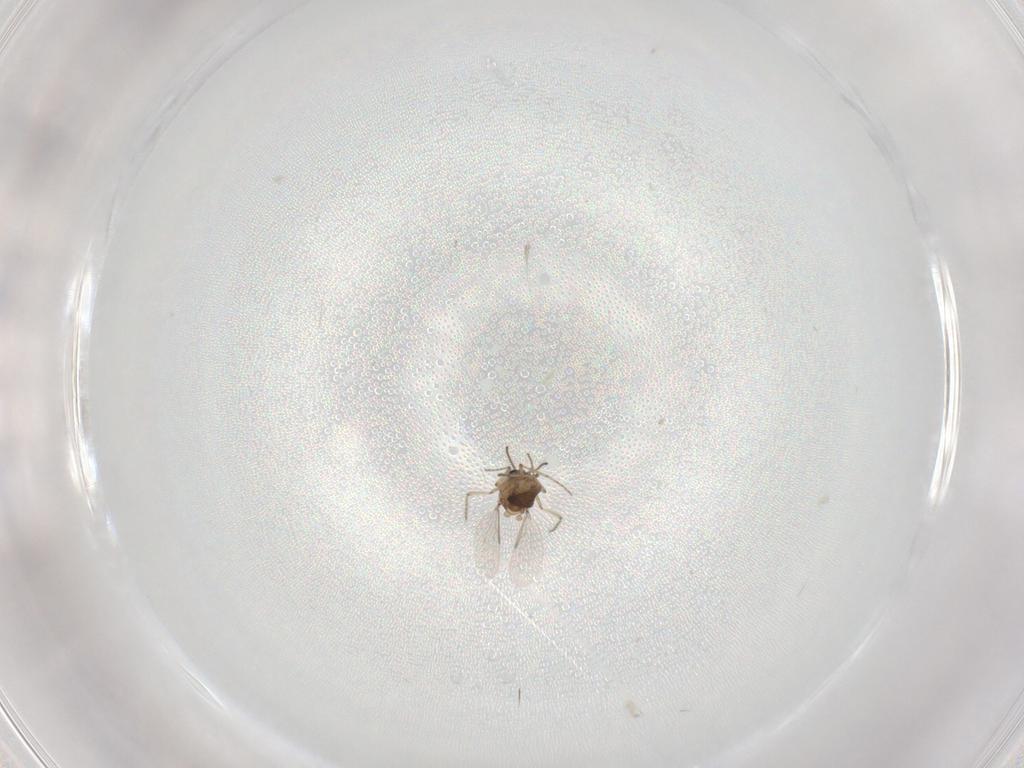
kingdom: Animalia
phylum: Arthropoda
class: Insecta
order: Diptera
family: Ceratopogonidae
